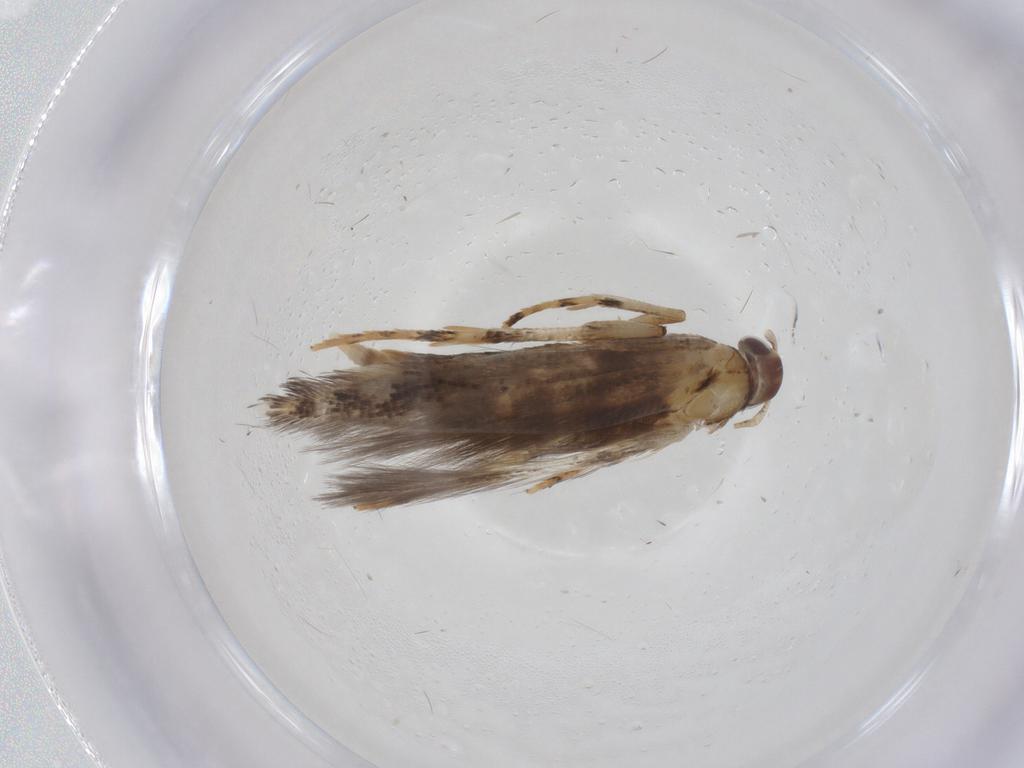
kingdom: Animalia
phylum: Arthropoda
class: Insecta
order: Lepidoptera
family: Cosmopterigidae
